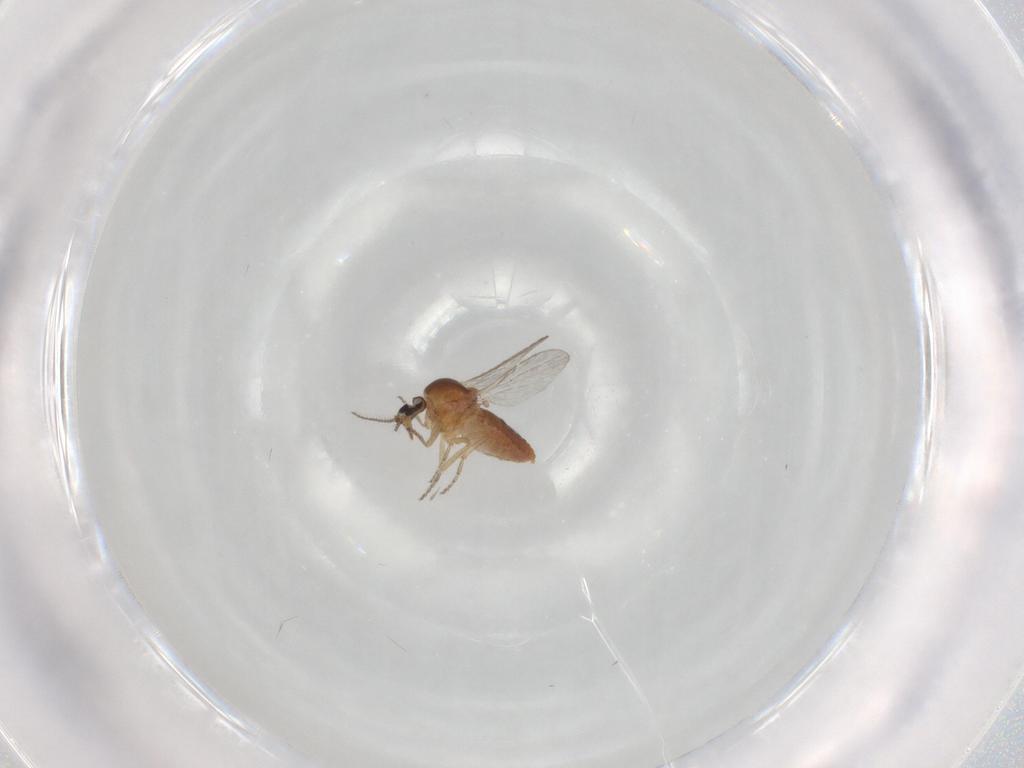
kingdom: Animalia
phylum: Arthropoda
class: Insecta
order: Diptera
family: Ceratopogonidae
